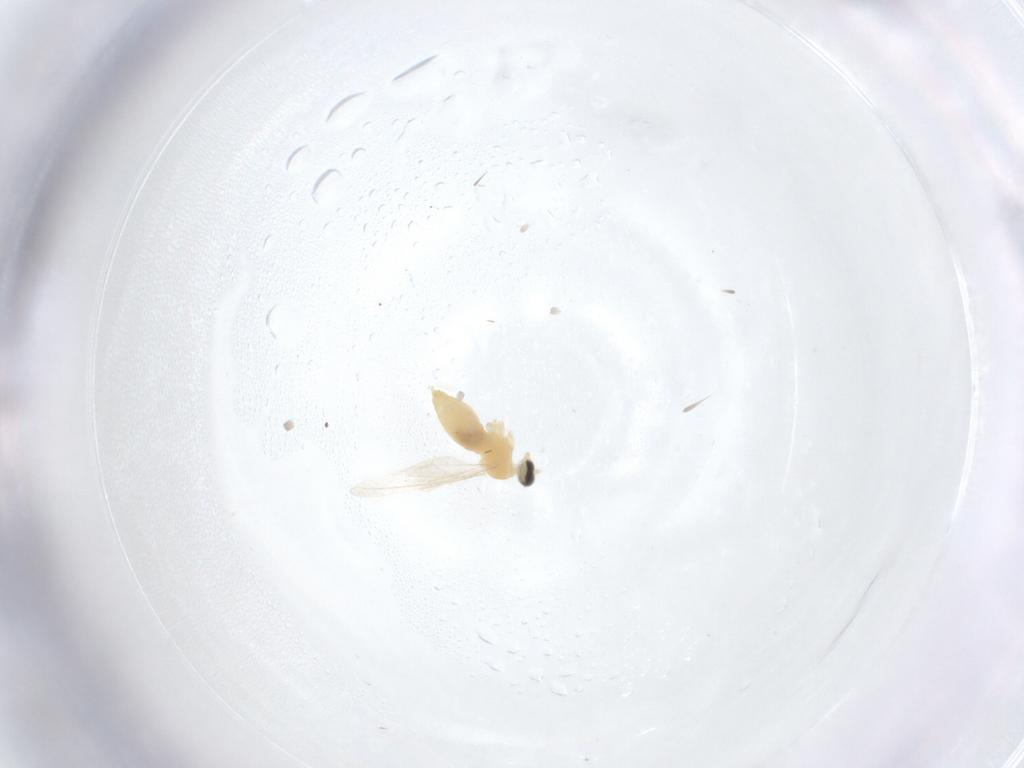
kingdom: Animalia
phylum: Arthropoda
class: Insecta
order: Diptera
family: Cecidomyiidae
